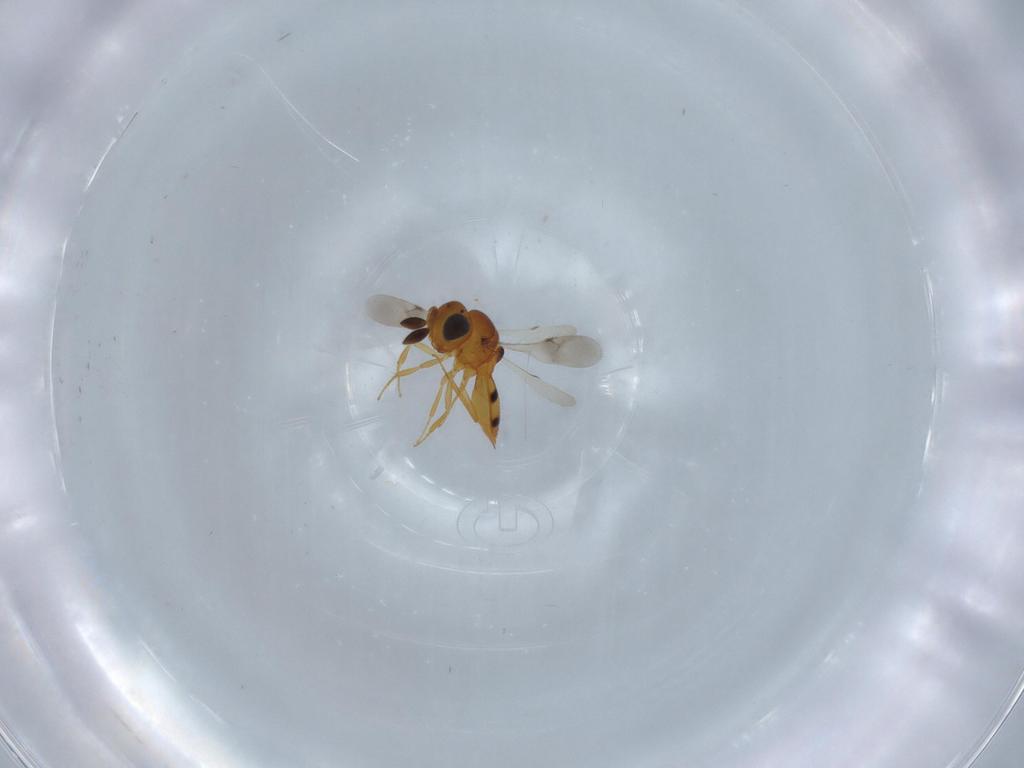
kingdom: Animalia
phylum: Arthropoda
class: Insecta
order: Hymenoptera
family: Scelionidae
